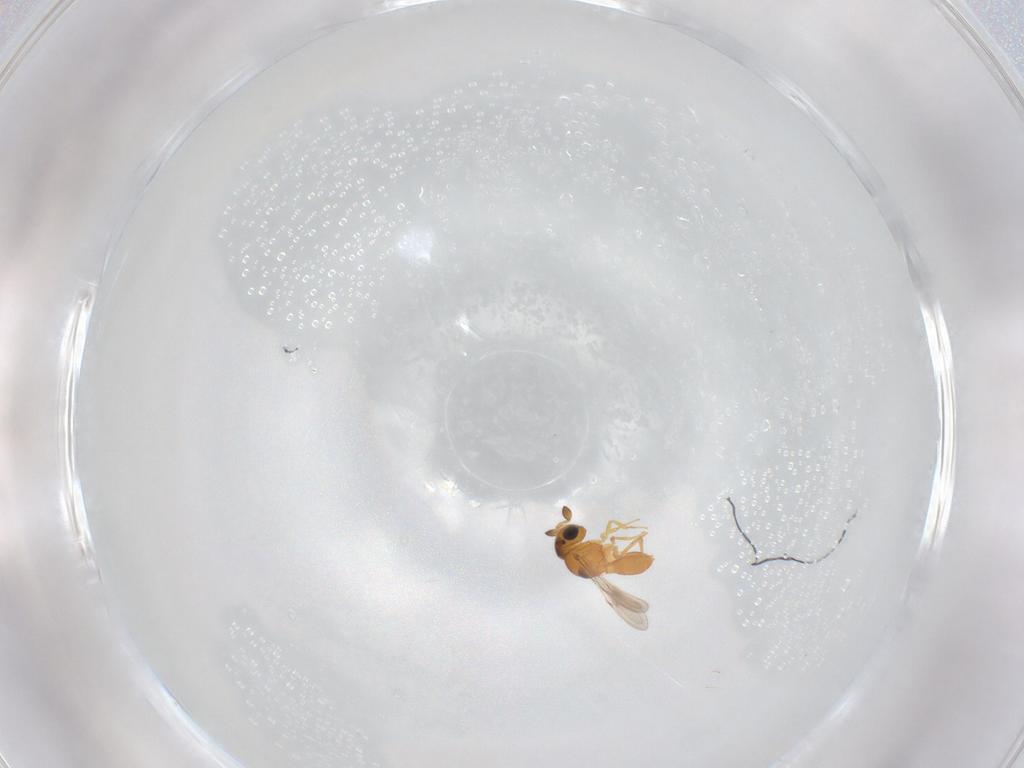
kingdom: Animalia
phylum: Arthropoda
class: Insecta
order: Hymenoptera
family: Scelionidae
